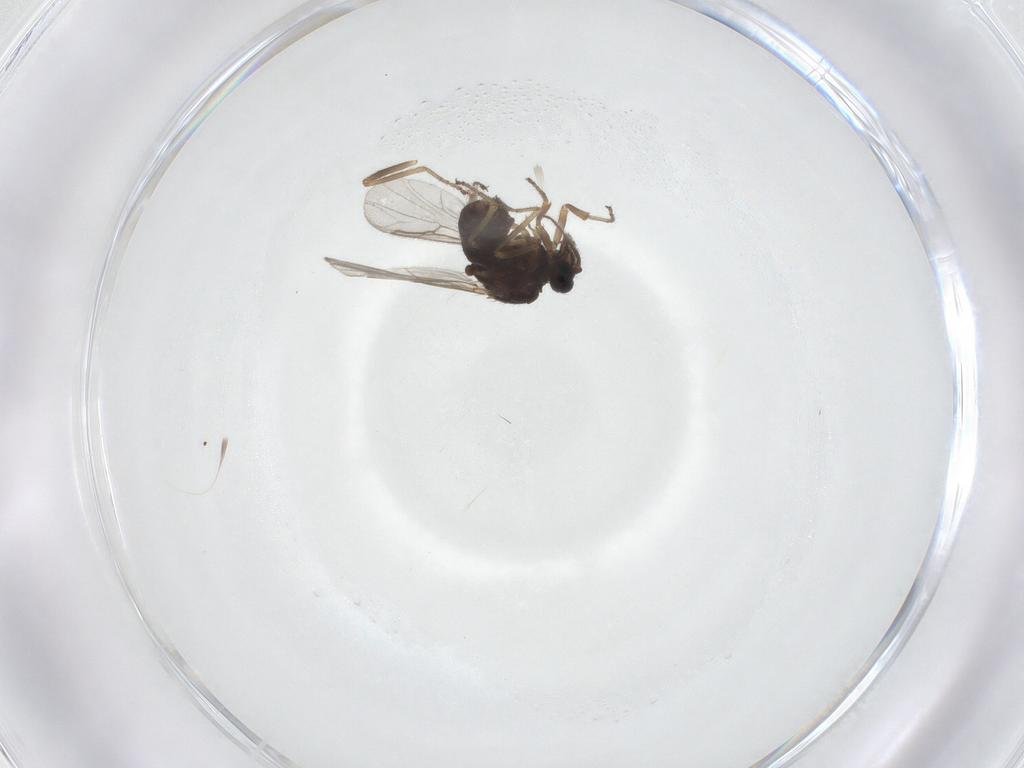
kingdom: Animalia
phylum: Arthropoda
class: Insecta
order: Diptera
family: Ceratopogonidae
